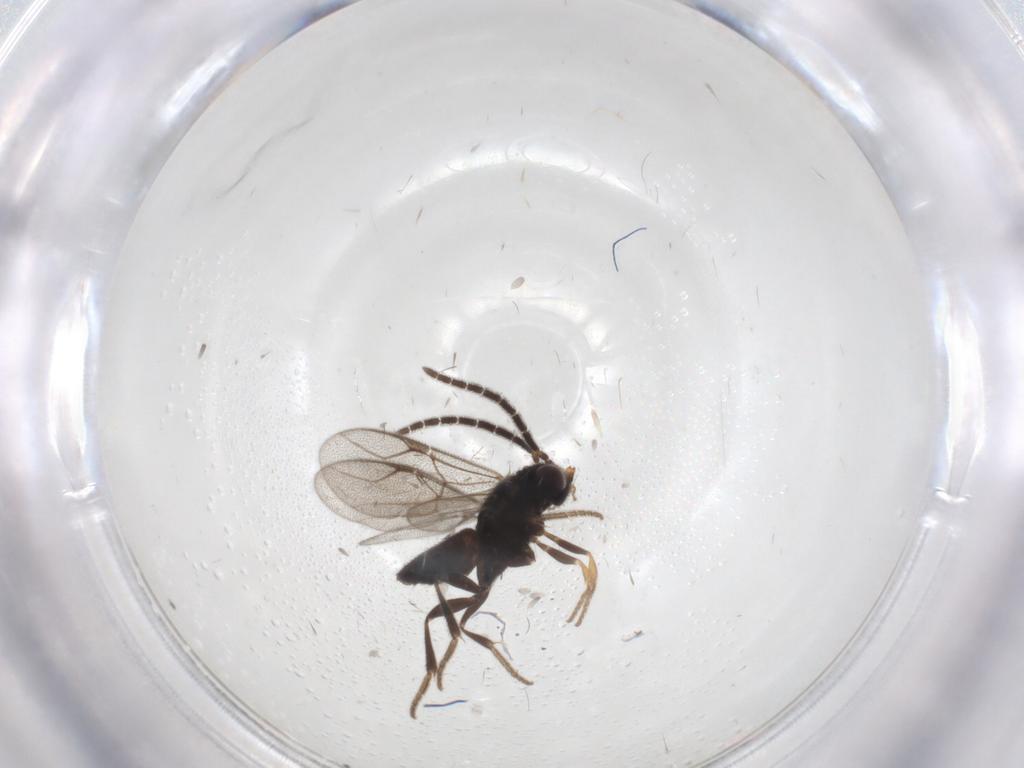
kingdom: Animalia
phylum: Arthropoda
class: Insecta
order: Hymenoptera
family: Dryinidae
